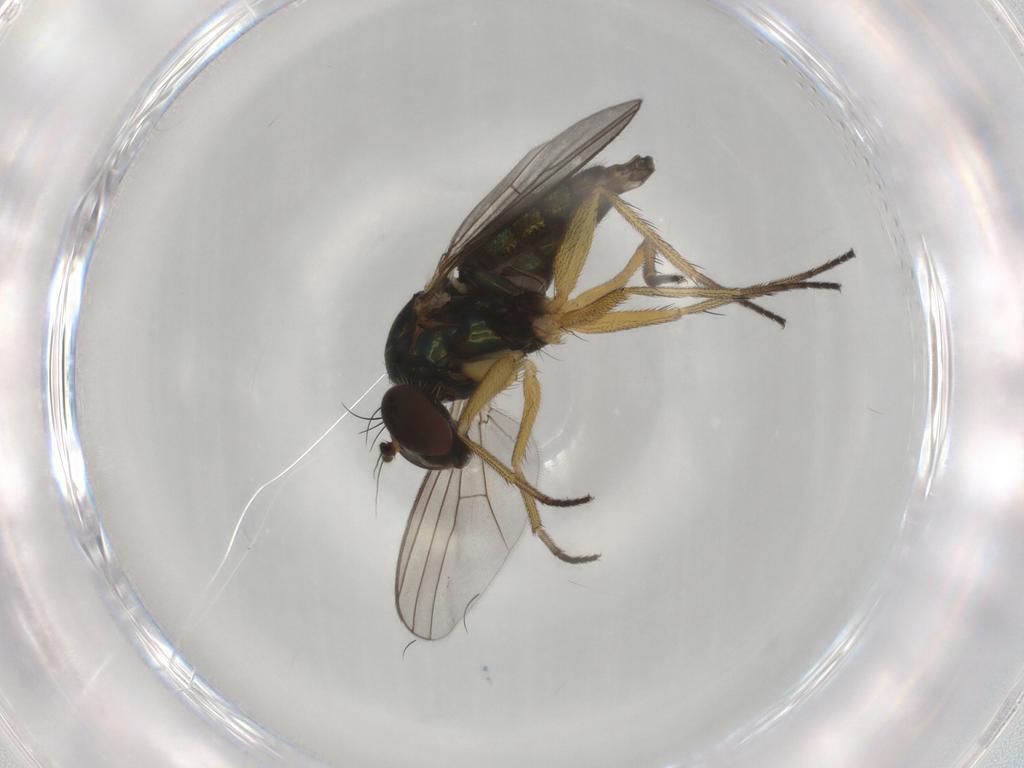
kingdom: Animalia
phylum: Arthropoda
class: Insecta
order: Diptera
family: Dolichopodidae
